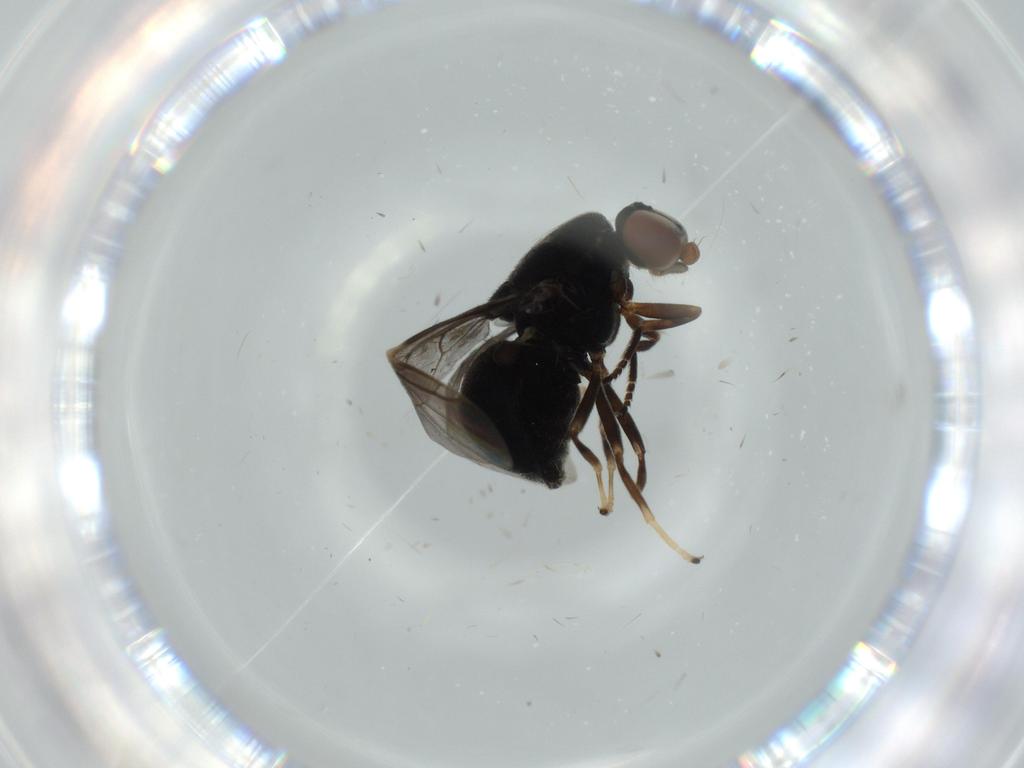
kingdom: Animalia
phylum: Arthropoda
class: Insecta
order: Diptera
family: Stratiomyidae
